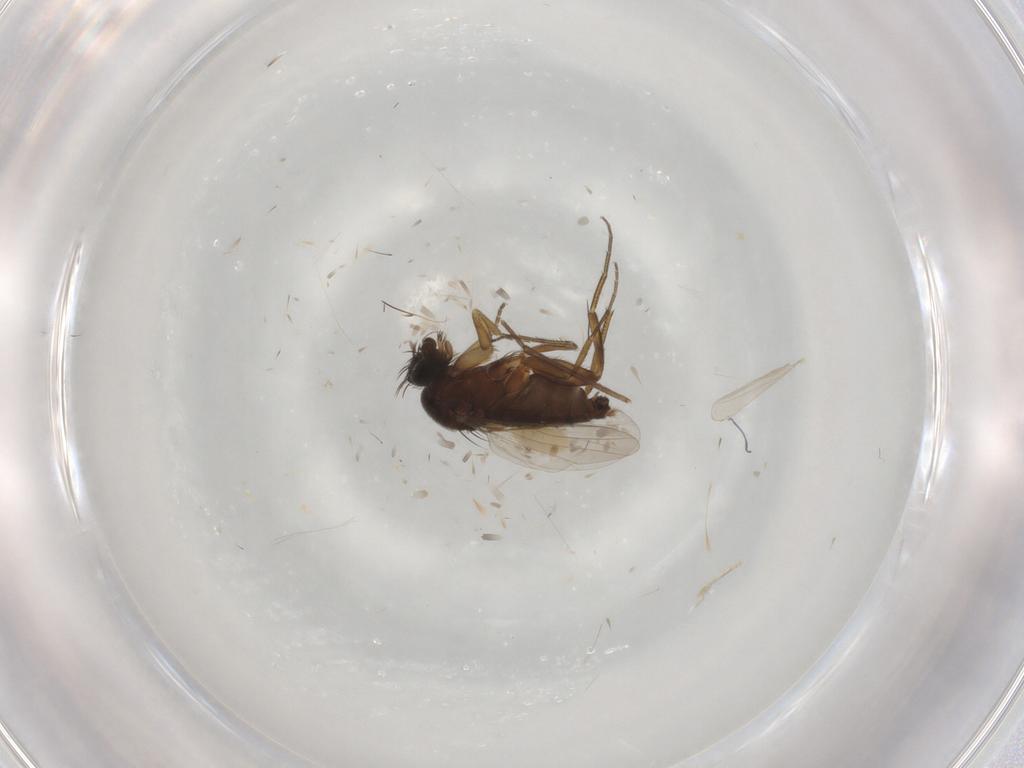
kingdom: Animalia
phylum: Arthropoda
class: Insecta
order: Diptera
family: Phoridae
